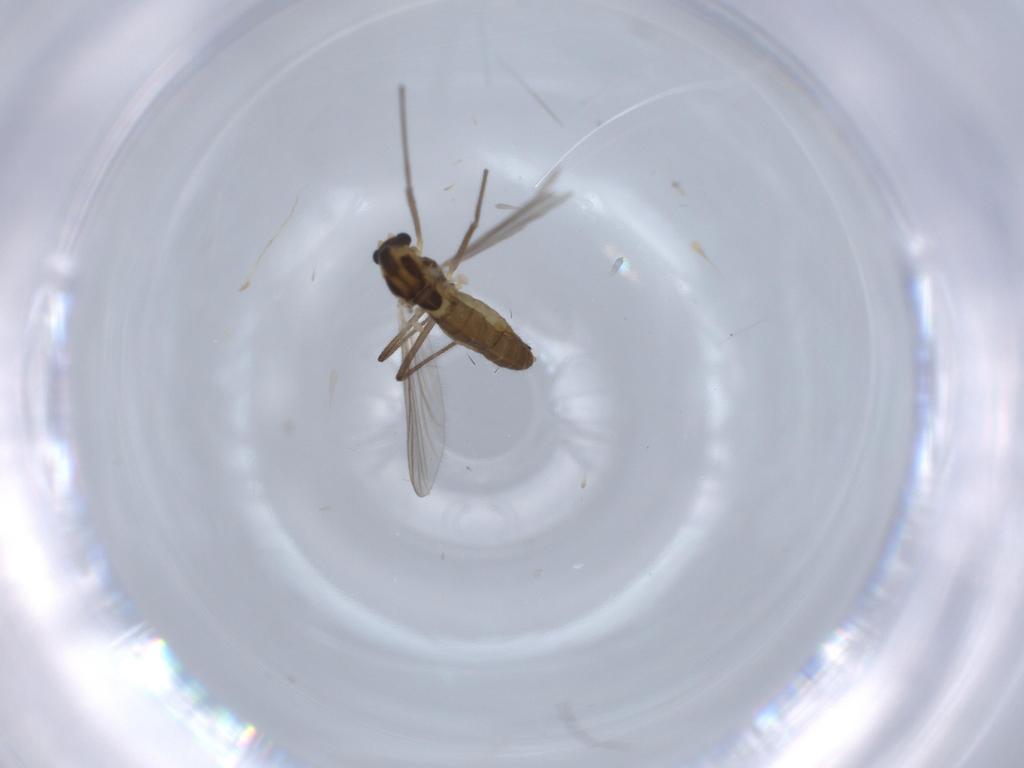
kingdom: Animalia
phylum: Arthropoda
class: Insecta
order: Diptera
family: Chironomidae
